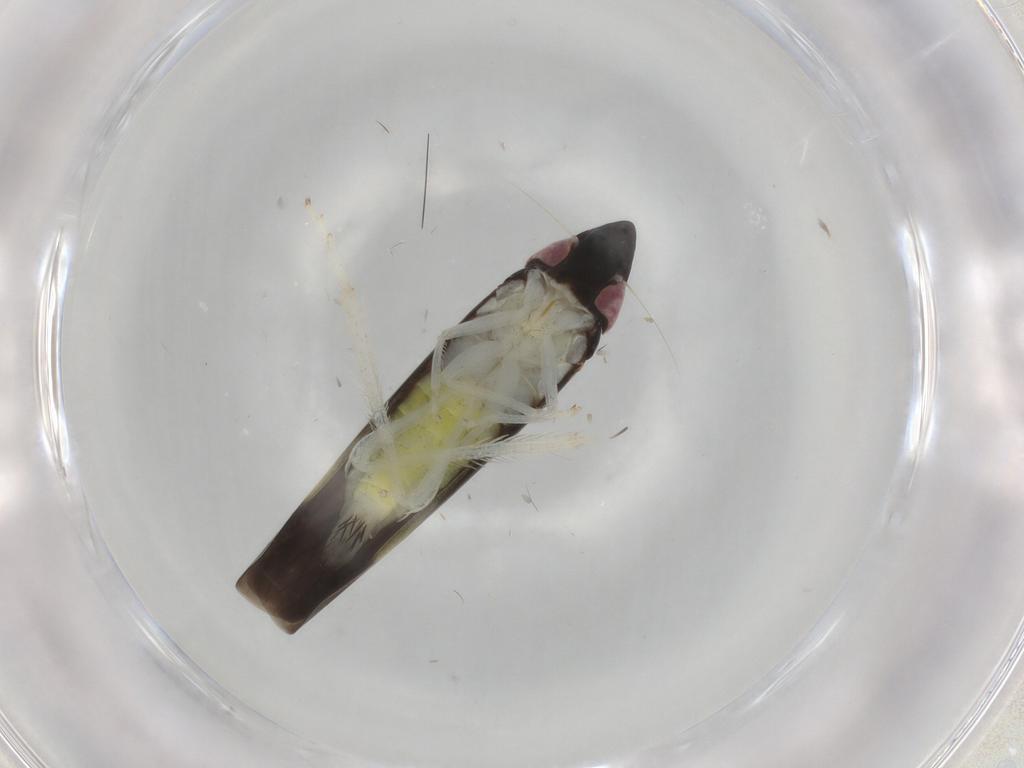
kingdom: Animalia
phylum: Arthropoda
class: Insecta
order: Hemiptera
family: Cicadellidae
